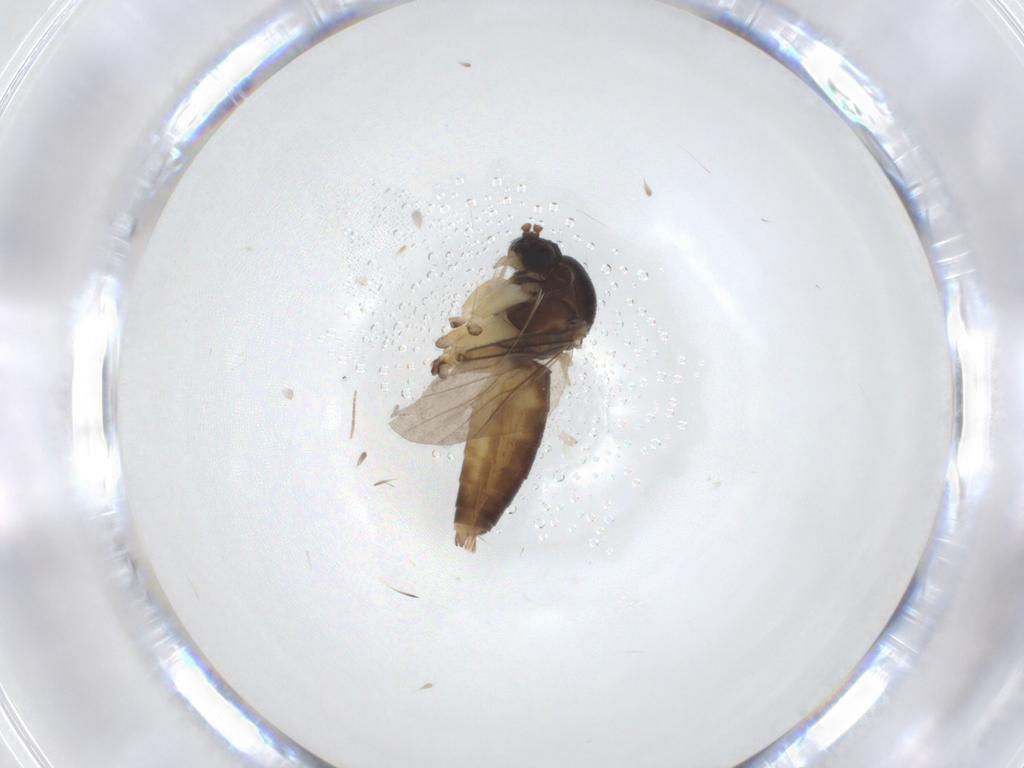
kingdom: Animalia
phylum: Arthropoda
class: Insecta
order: Diptera
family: Mycetophilidae
